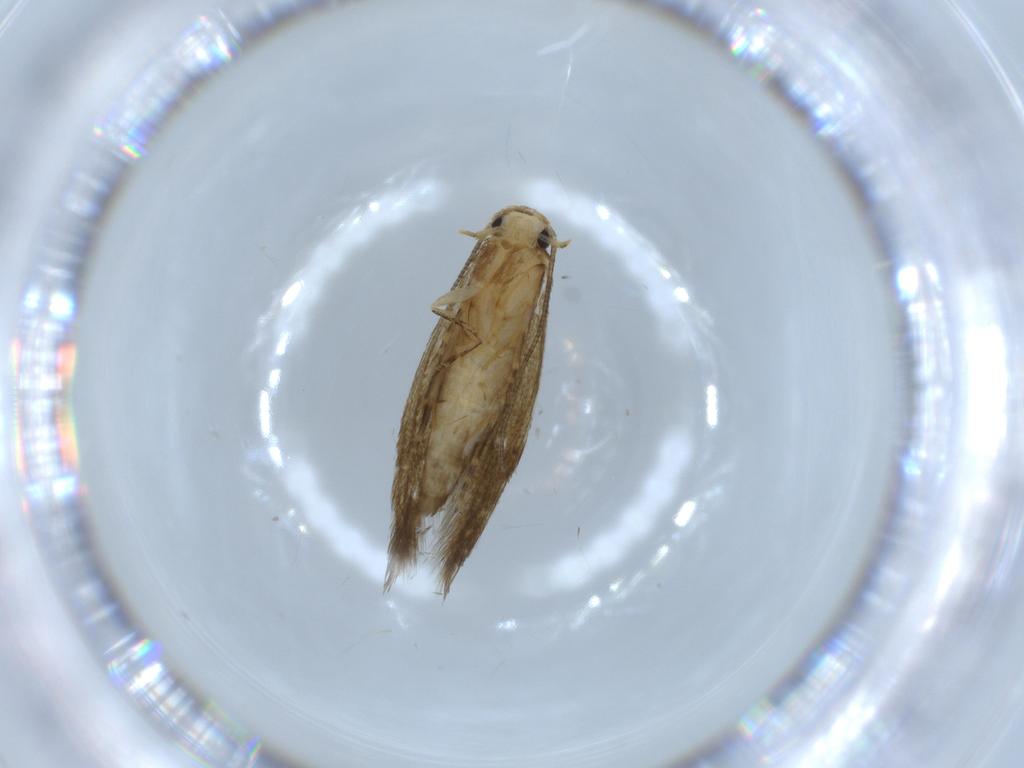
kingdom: Animalia
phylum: Arthropoda
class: Insecta
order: Lepidoptera
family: Tineidae
